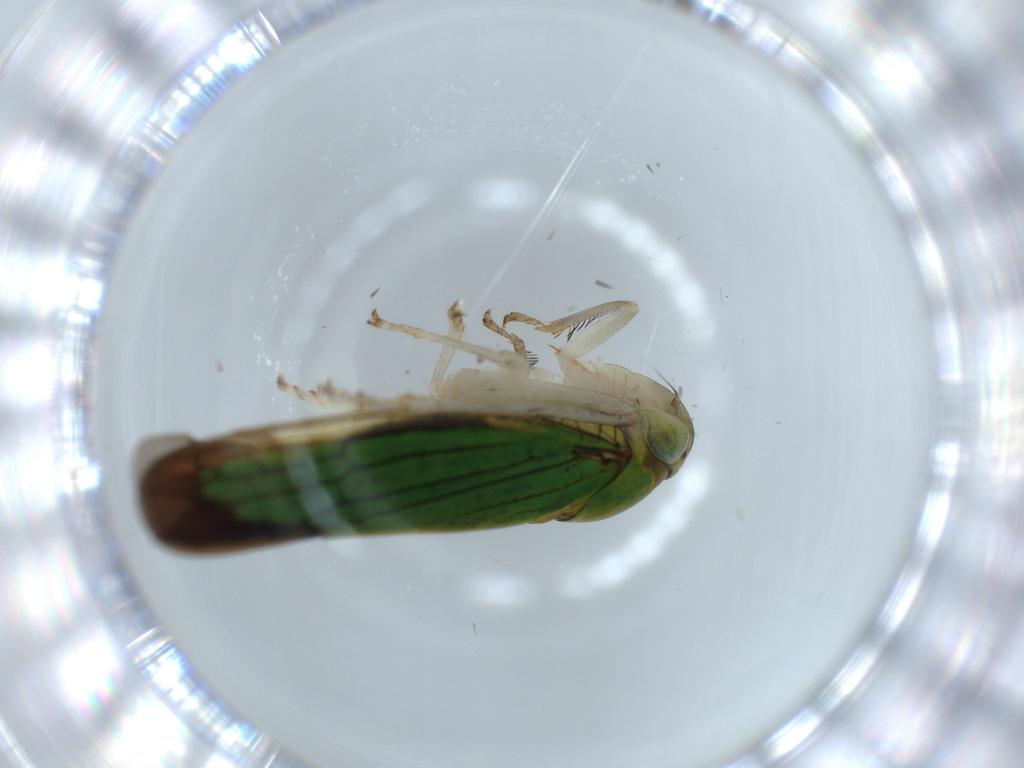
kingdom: Animalia
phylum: Arthropoda
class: Insecta
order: Hemiptera
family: Cicadellidae
